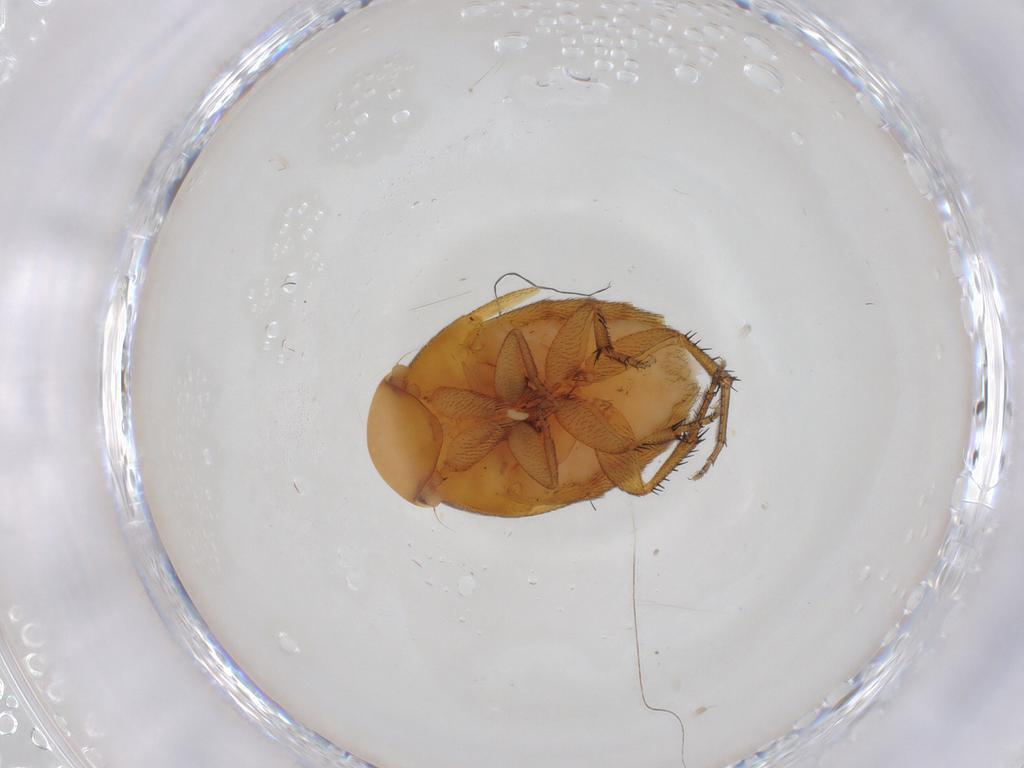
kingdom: Animalia
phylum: Arthropoda
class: Insecta
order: Diptera
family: Phoridae
